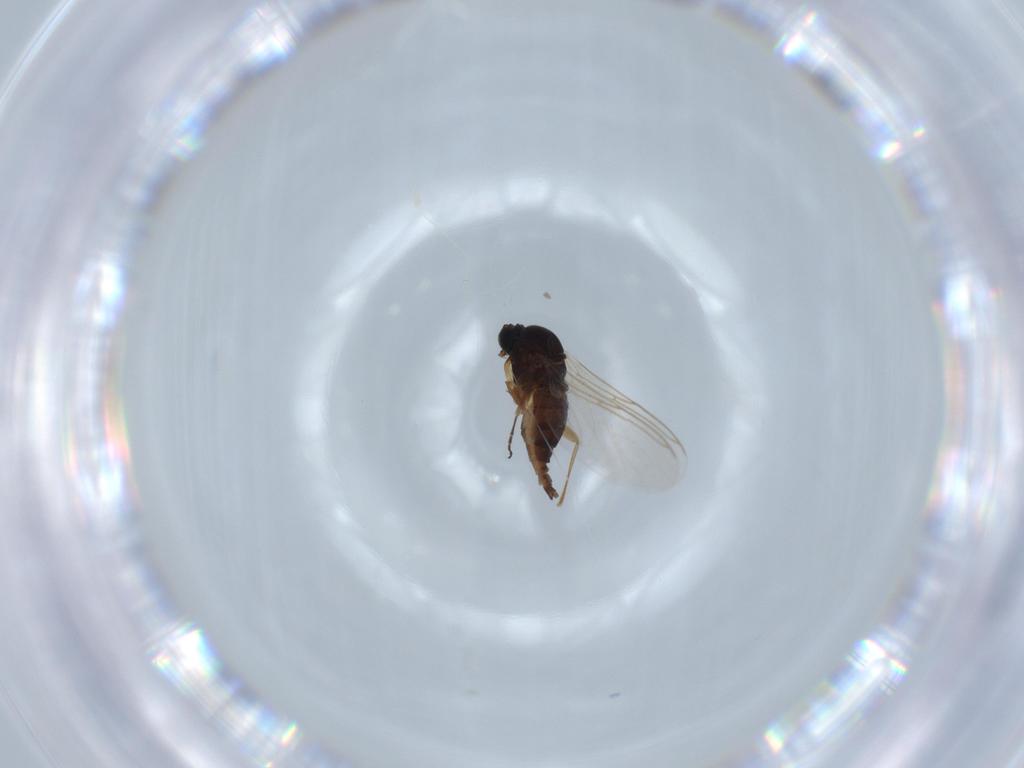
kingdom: Animalia
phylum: Arthropoda
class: Insecta
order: Diptera
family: Sciaridae
